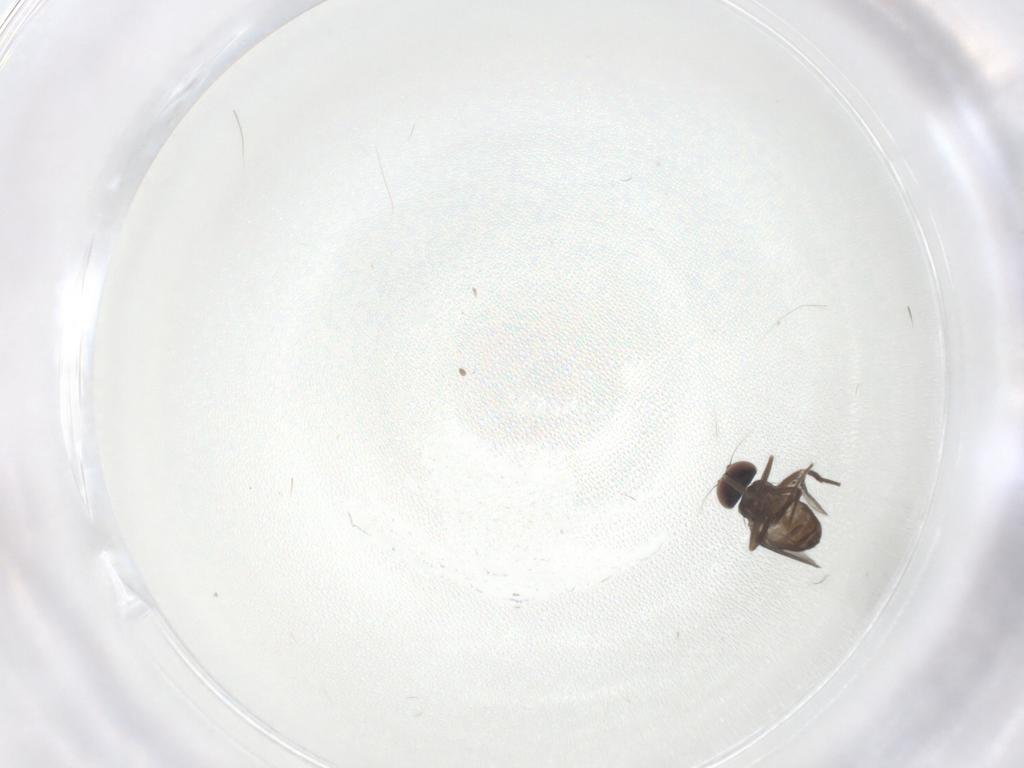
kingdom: Animalia
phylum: Arthropoda
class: Insecta
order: Diptera
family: Dolichopodidae
